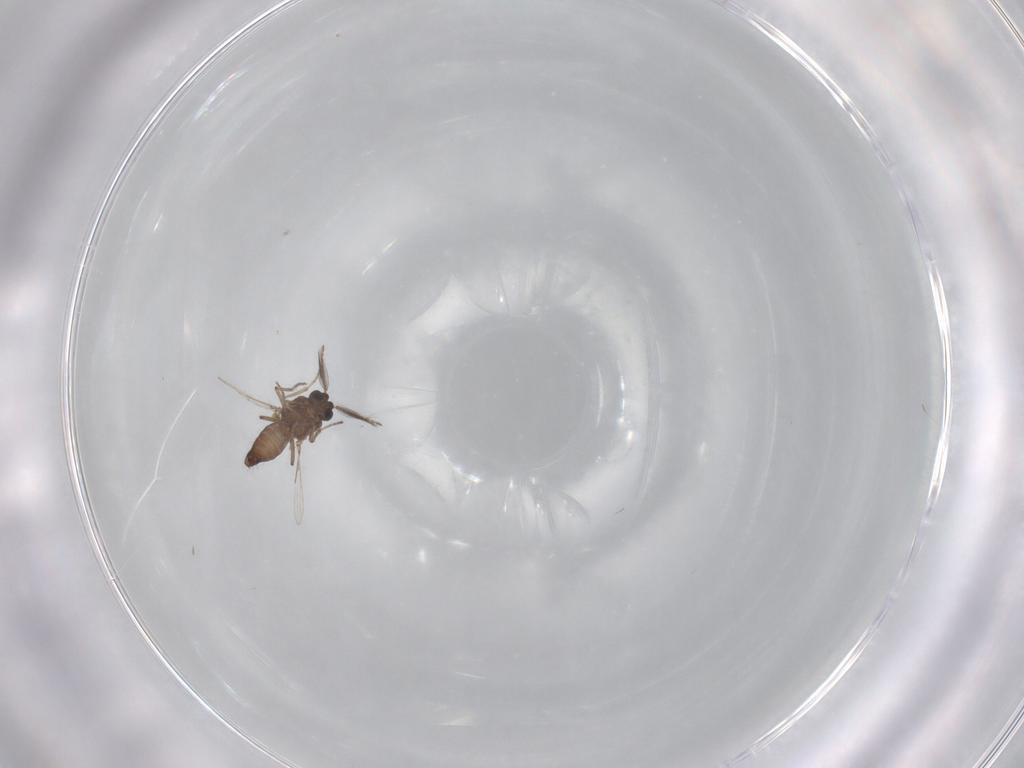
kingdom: Animalia
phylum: Arthropoda
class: Insecta
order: Diptera
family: Ceratopogonidae
